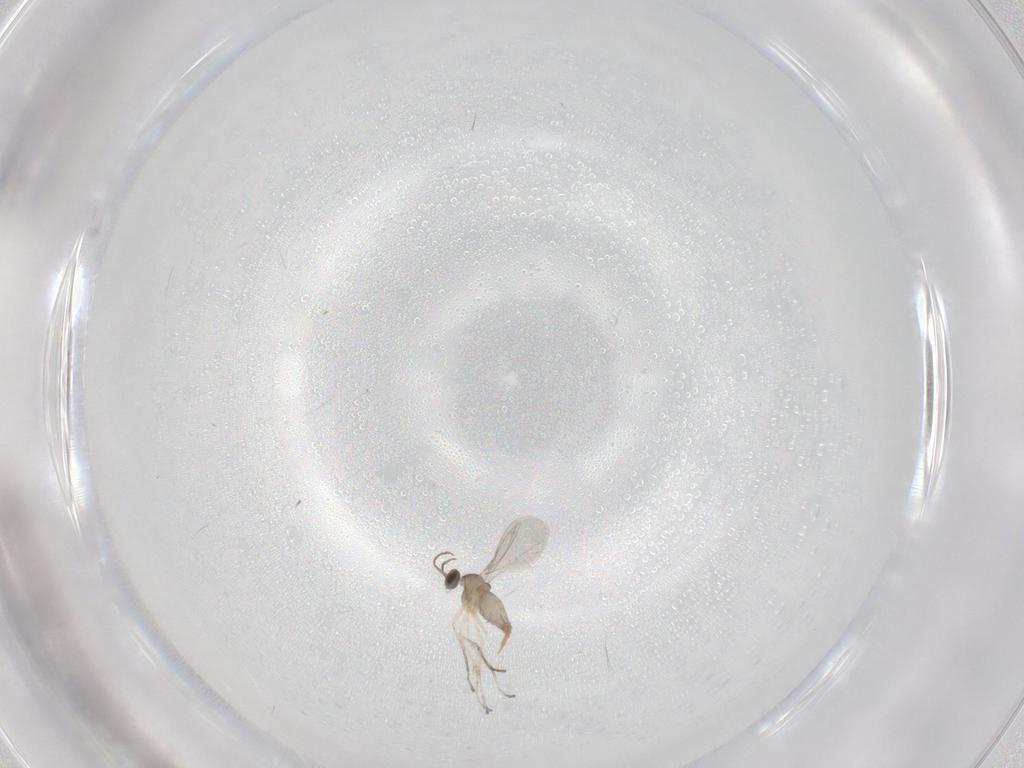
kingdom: Animalia
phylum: Arthropoda
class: Insecta
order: Diptera
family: Cecidomyiidae
